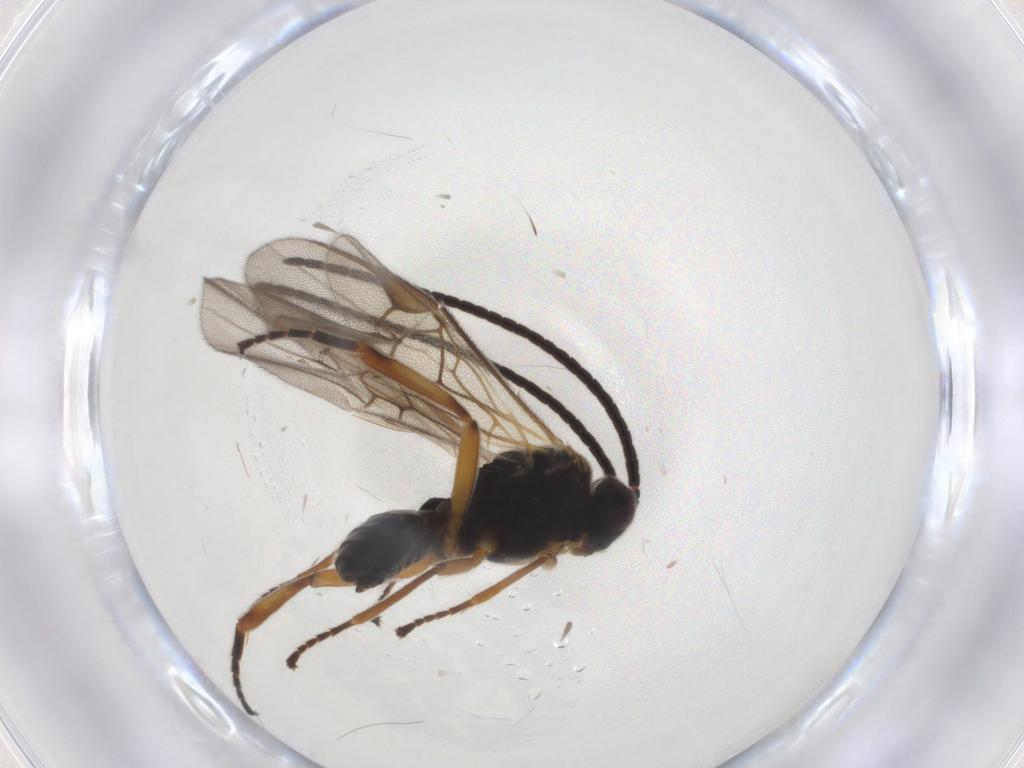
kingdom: Animalia
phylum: Arthropoda
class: Insecta
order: Hymenoptera
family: Braconidae
